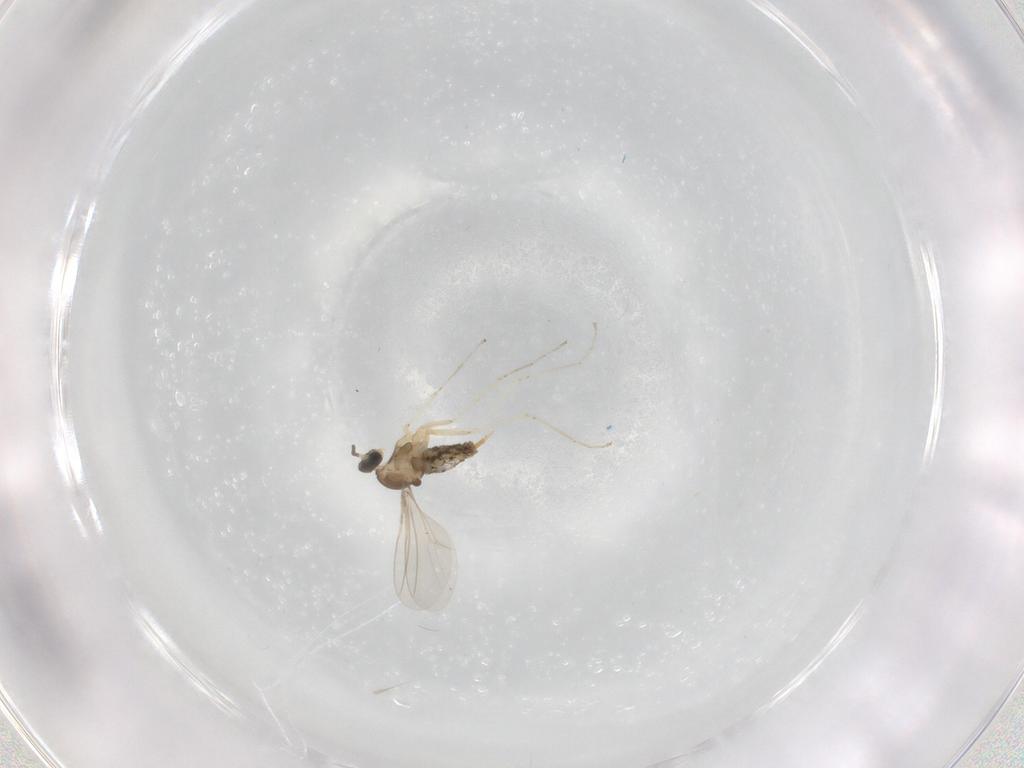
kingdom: Animalia
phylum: Arthropoda
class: Insecta
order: Diptera
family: Cecidomyiidae
